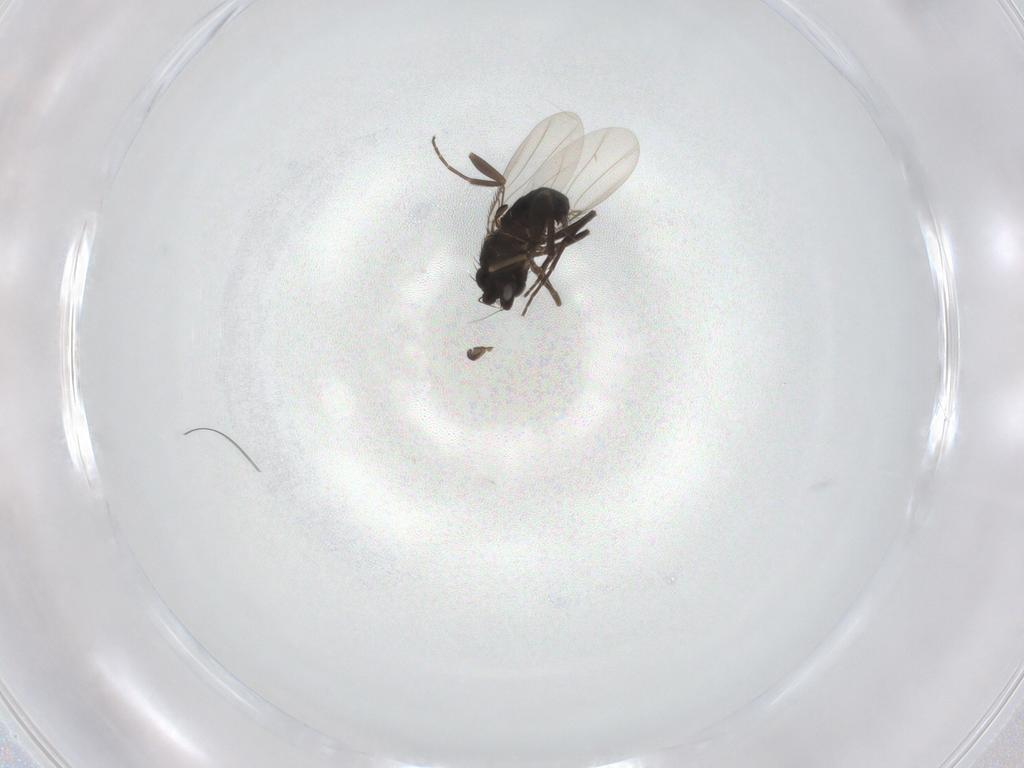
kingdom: Animalia
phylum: Arthropoda
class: Insecta
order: Diptera
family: Phoridae
